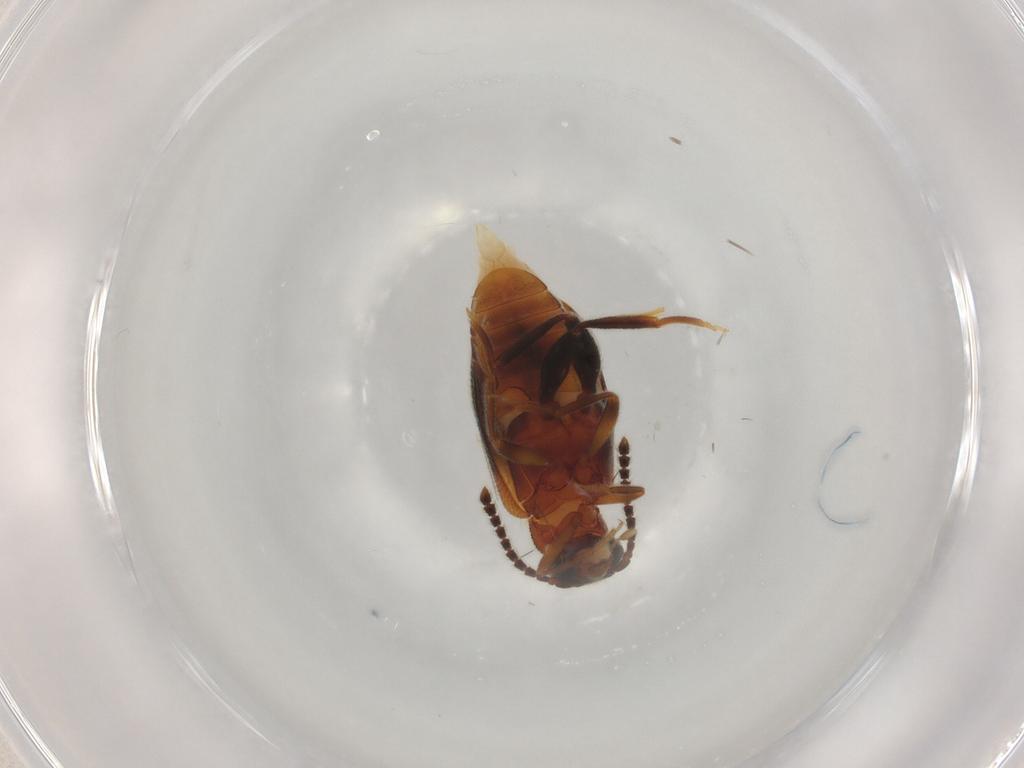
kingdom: Animalia
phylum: Arthropoda
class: Insecta
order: Coleoptera
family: Aderidae
